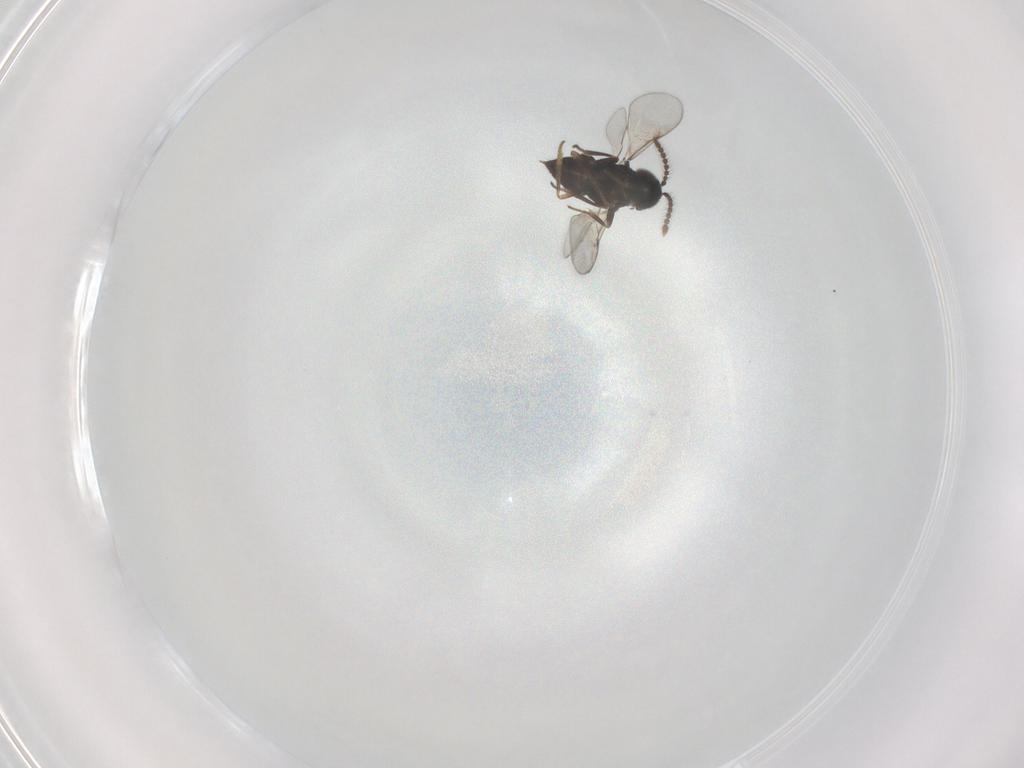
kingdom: Animalia
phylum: Arthropoda
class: Insecta
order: Hymenoptera
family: Encyrtidae
